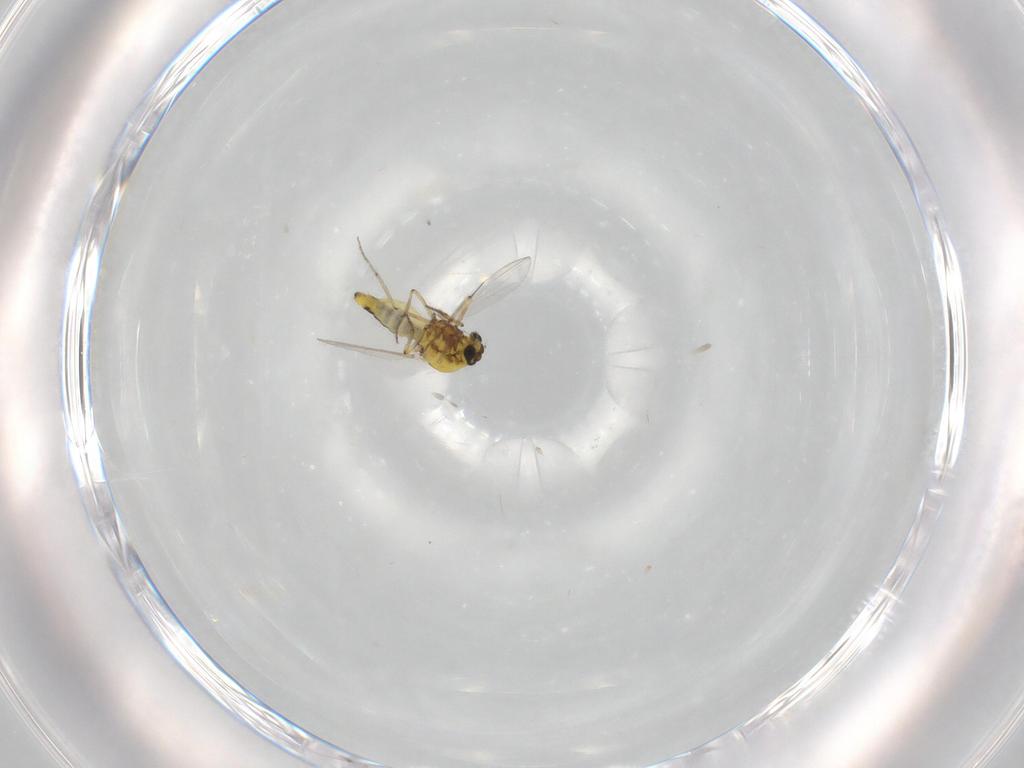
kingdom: Animalia
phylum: Arthropoda
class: Insecta
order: Diptera
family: Ceratopogonidae
